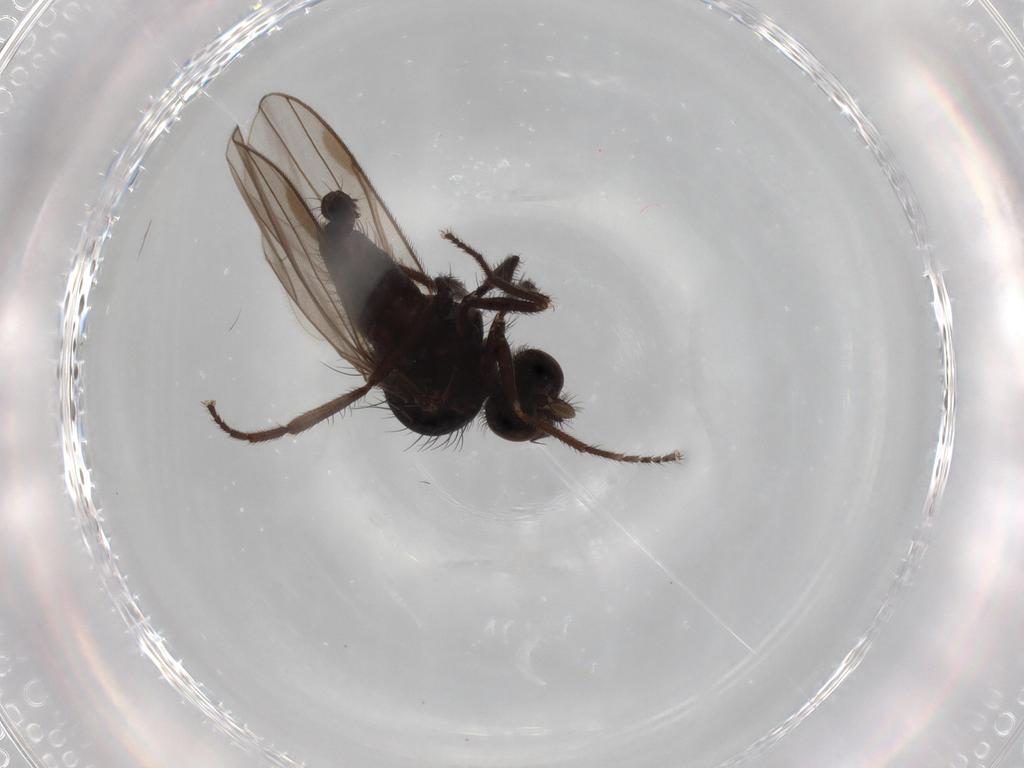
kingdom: Animalia
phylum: Arthropoda
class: Insecta
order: Diptera
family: Dolichopodidae
